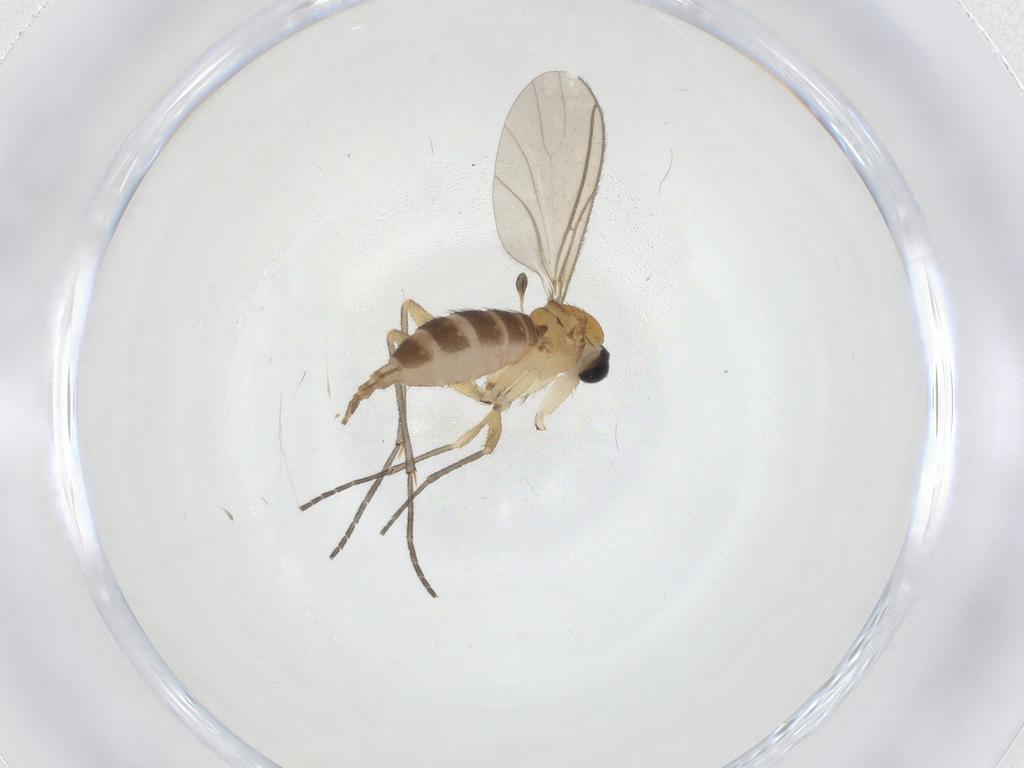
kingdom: Animalia
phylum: Arthropoda
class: Insecta
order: Diptera
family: Sciaridae
